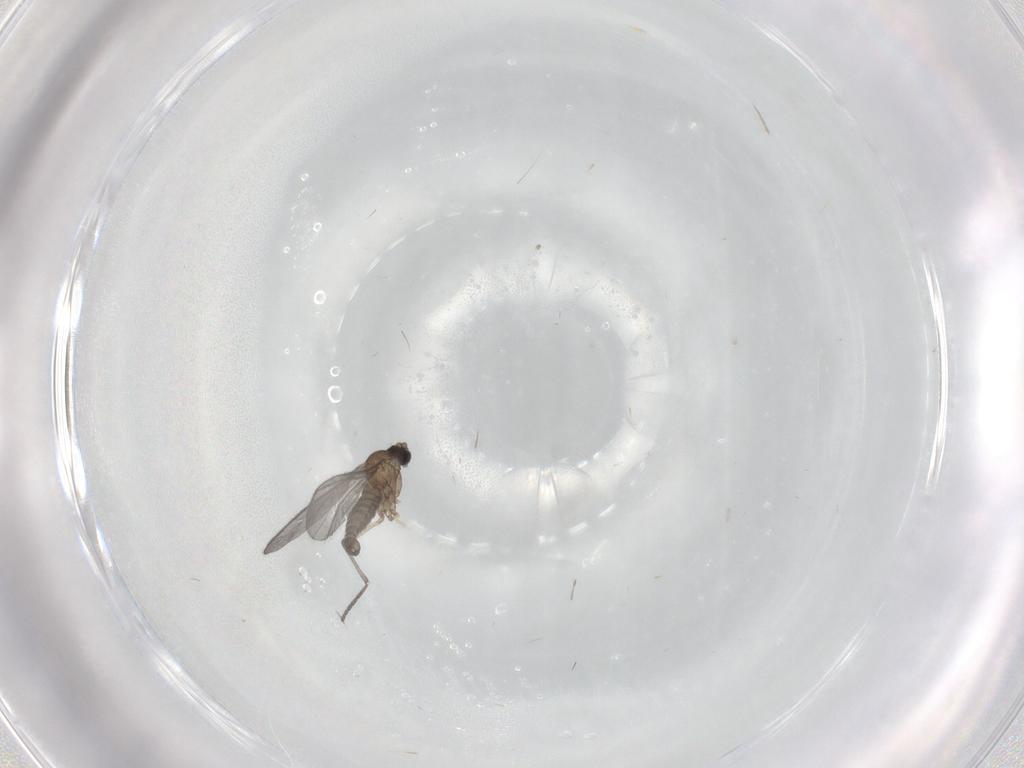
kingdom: Animalia
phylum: Arthropoda
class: Insecta
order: Diptera
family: Sciaridae
